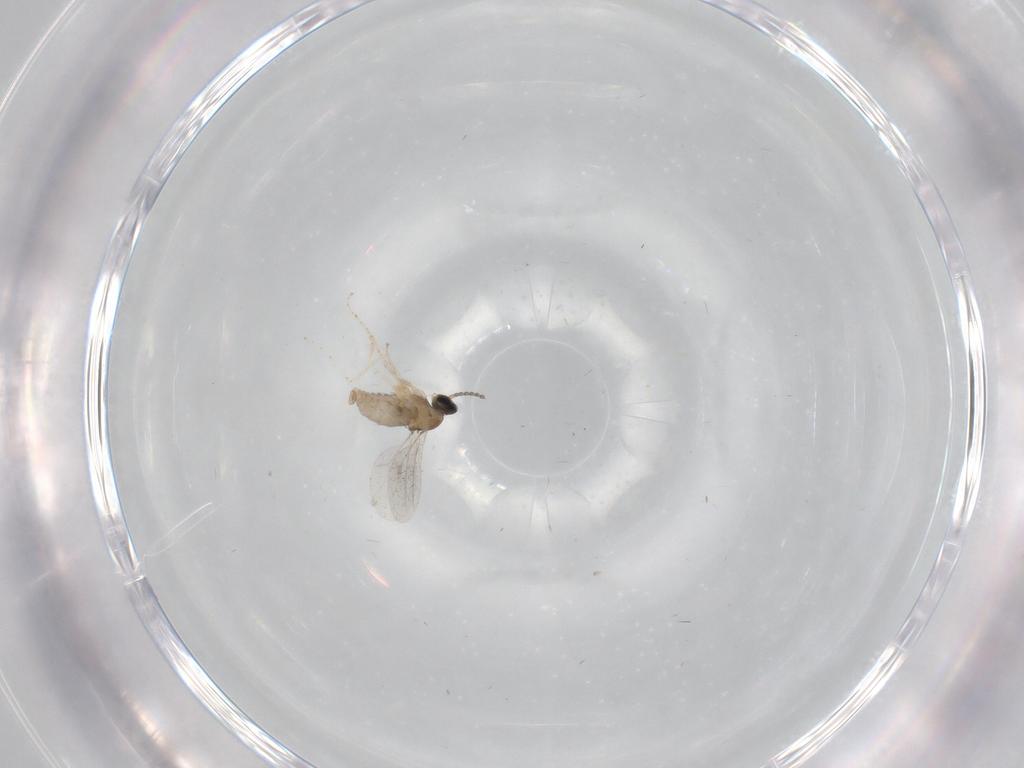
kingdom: Animalia
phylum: Arthropoda
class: Insecta
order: Diptera
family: Cecidomyiidae
